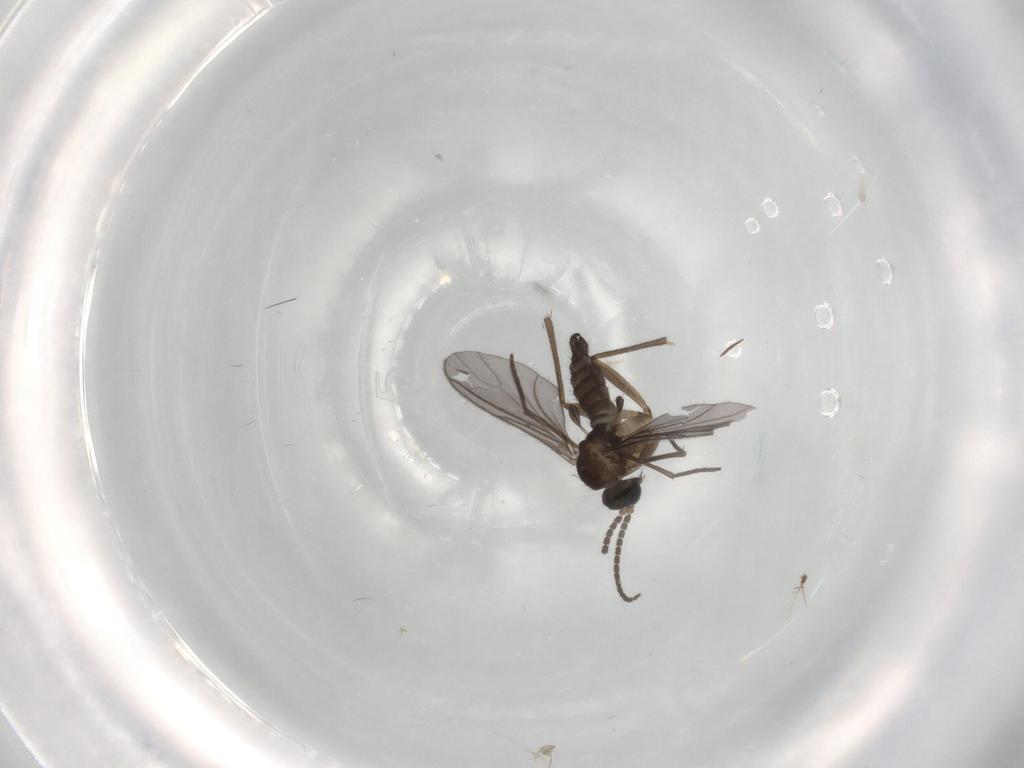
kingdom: Animalia
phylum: Arthropoda
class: Insecta
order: Diptera
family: Sciaridae
